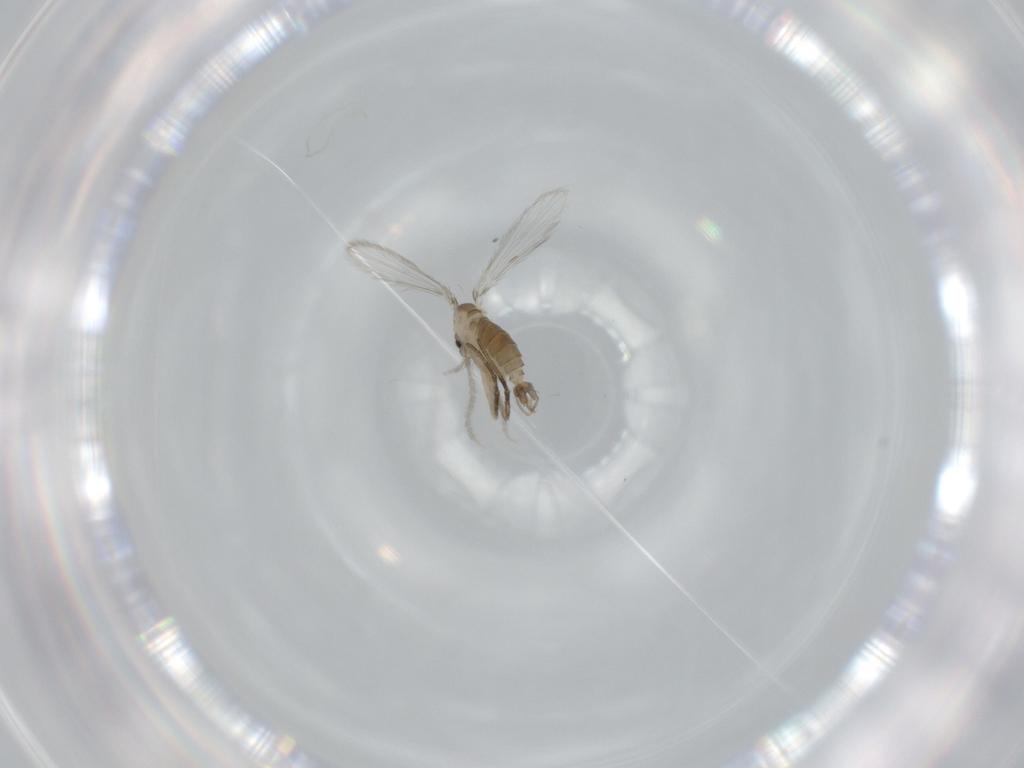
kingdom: Animalia
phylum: Arthropoda
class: Insecta
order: Diptera
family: Psychodidae
